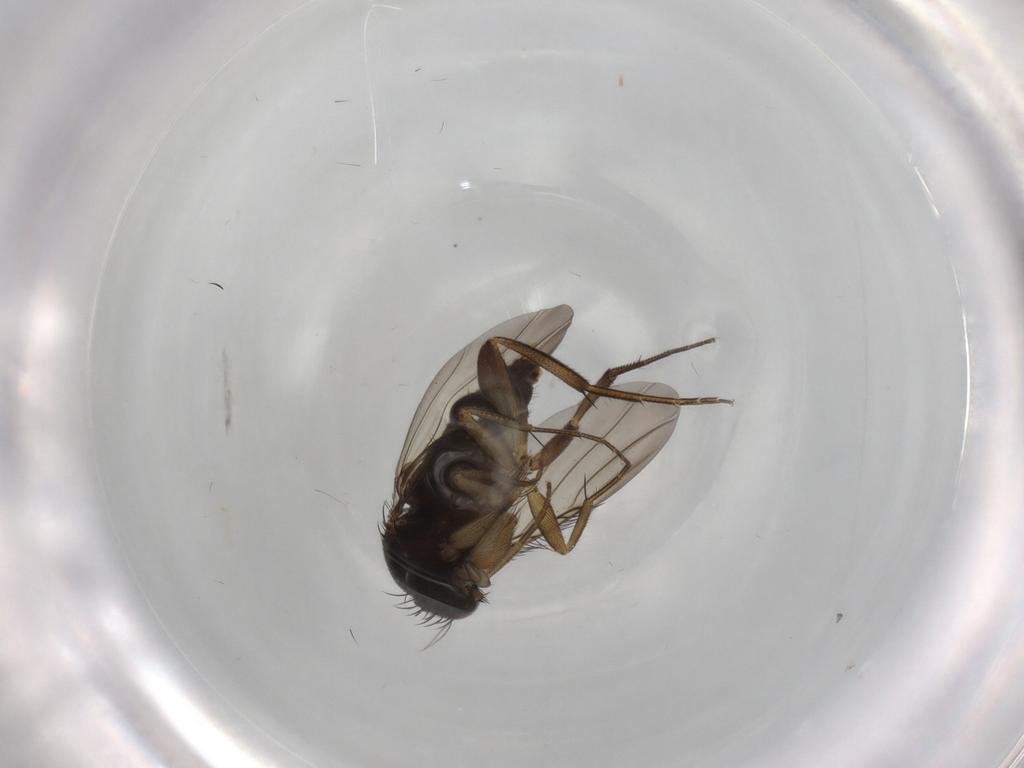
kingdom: Animalia
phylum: Arthropoda
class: Insecta
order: Diptera
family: Phoridae
